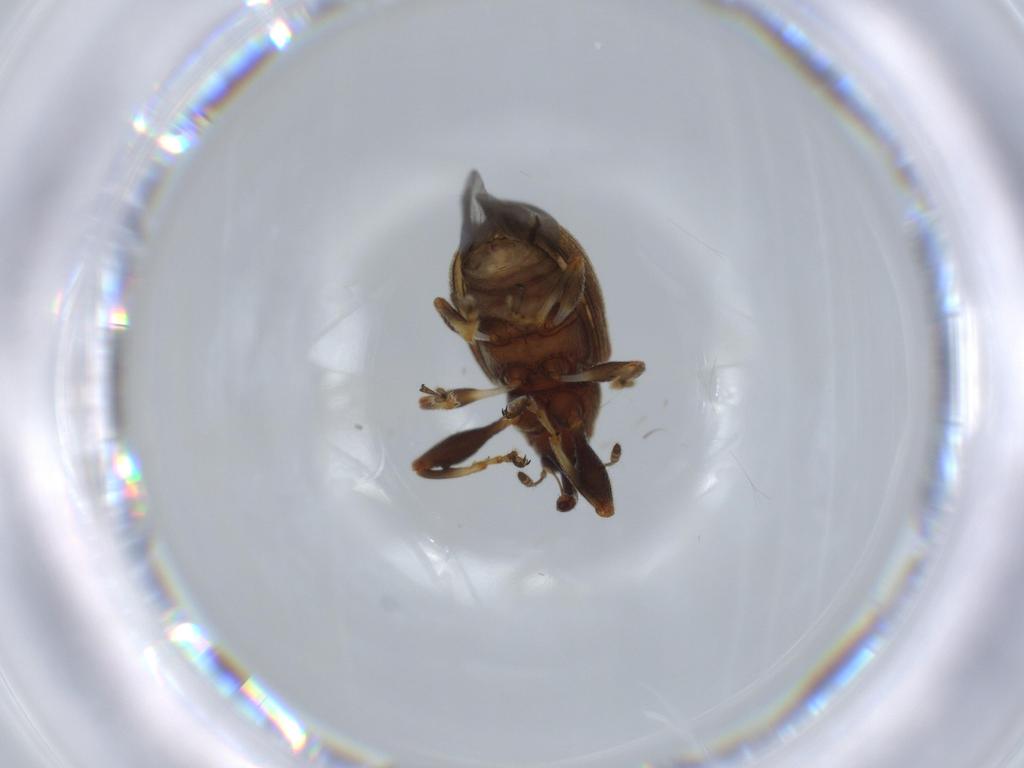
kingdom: Animalia
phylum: Arthropoda
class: Insecta
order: Coleoptera
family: Curculionidae
